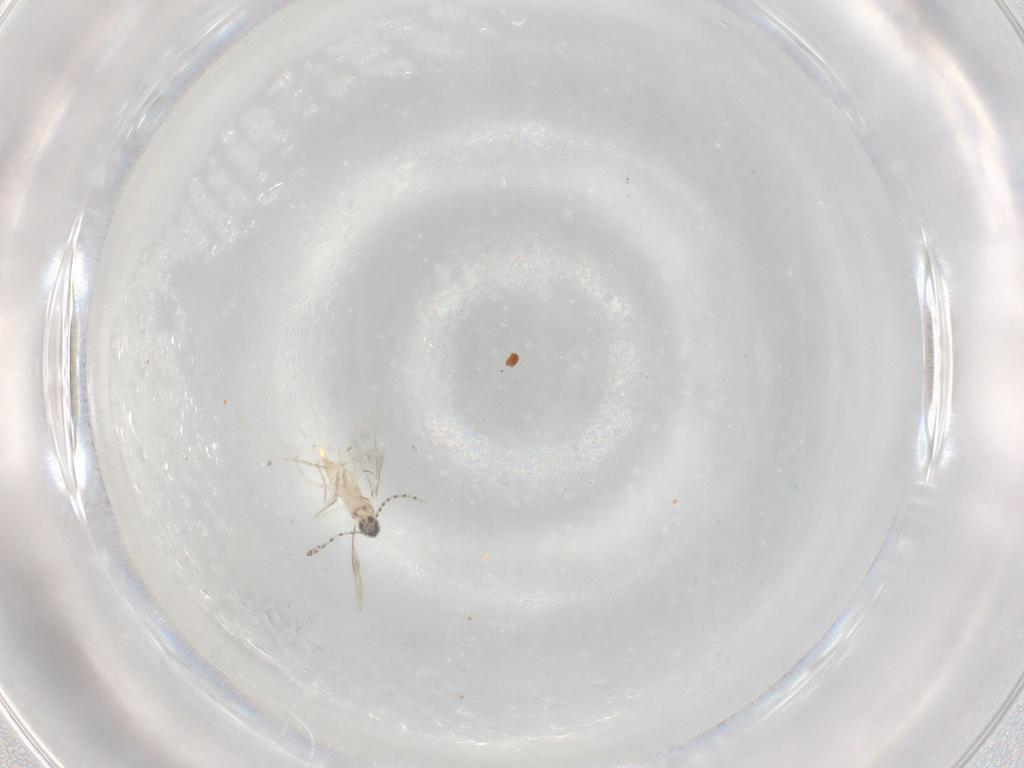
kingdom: Animalia
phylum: Arthropoda
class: Insecta
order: Diptera
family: Cecidomyiidae
